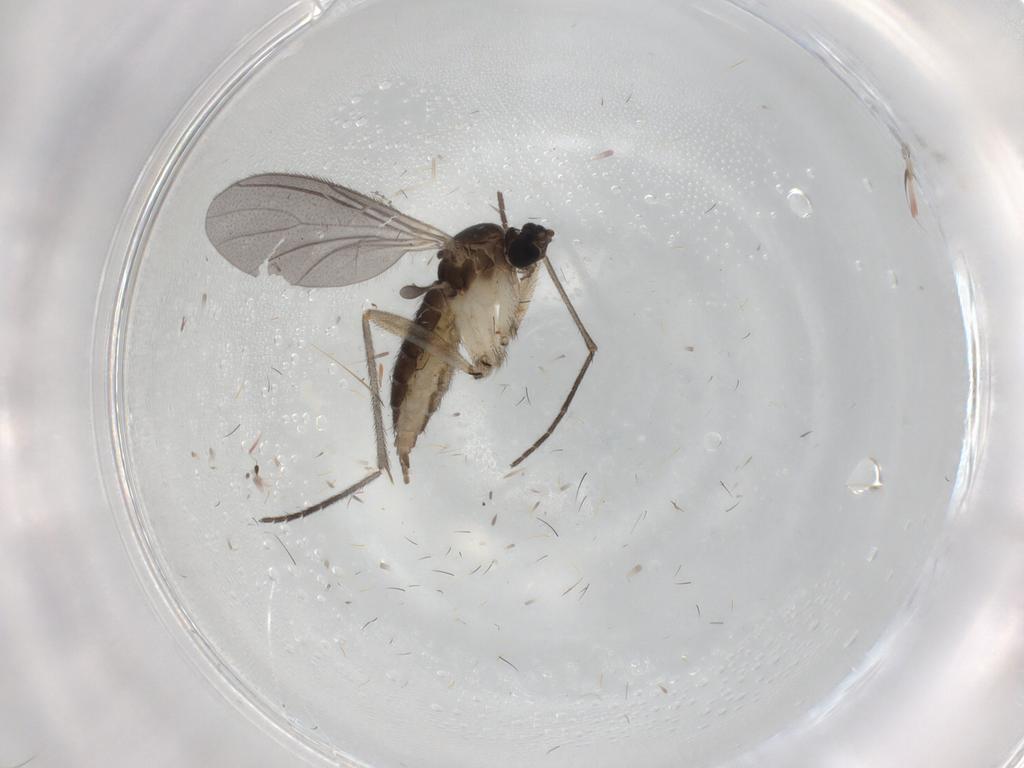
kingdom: Animalia
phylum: Arthropoda
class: Insecta
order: Diptera
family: Sciaridae
